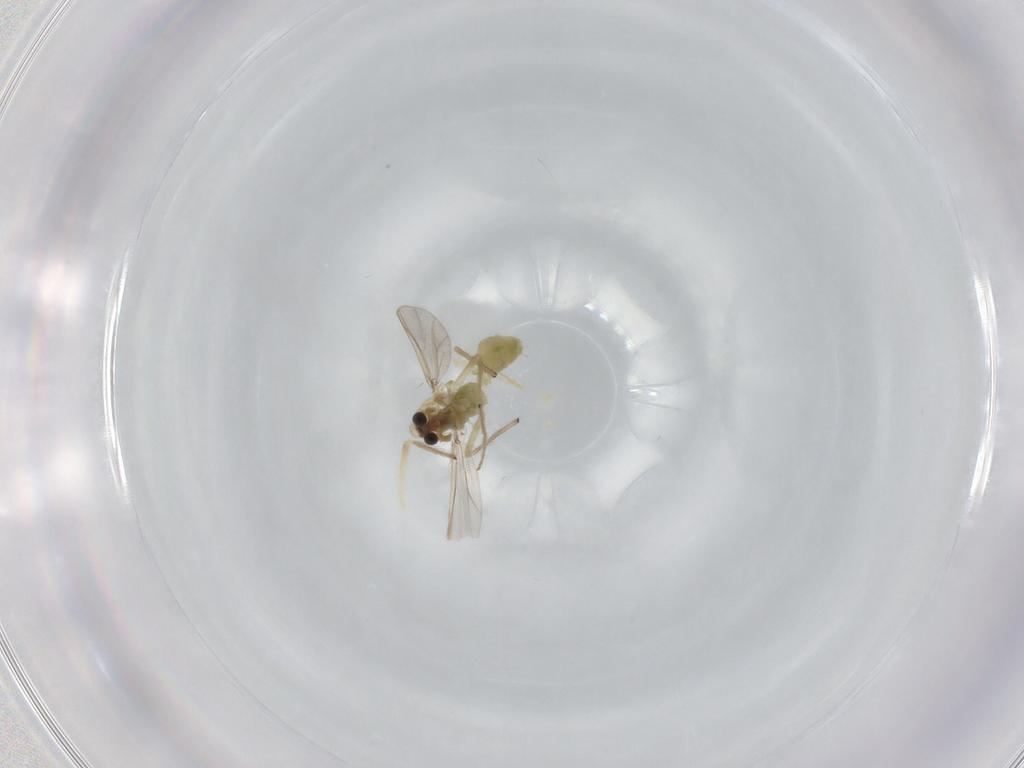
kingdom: Animalia
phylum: Arthropoda
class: Insecta
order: Diptera
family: Chironomidae
